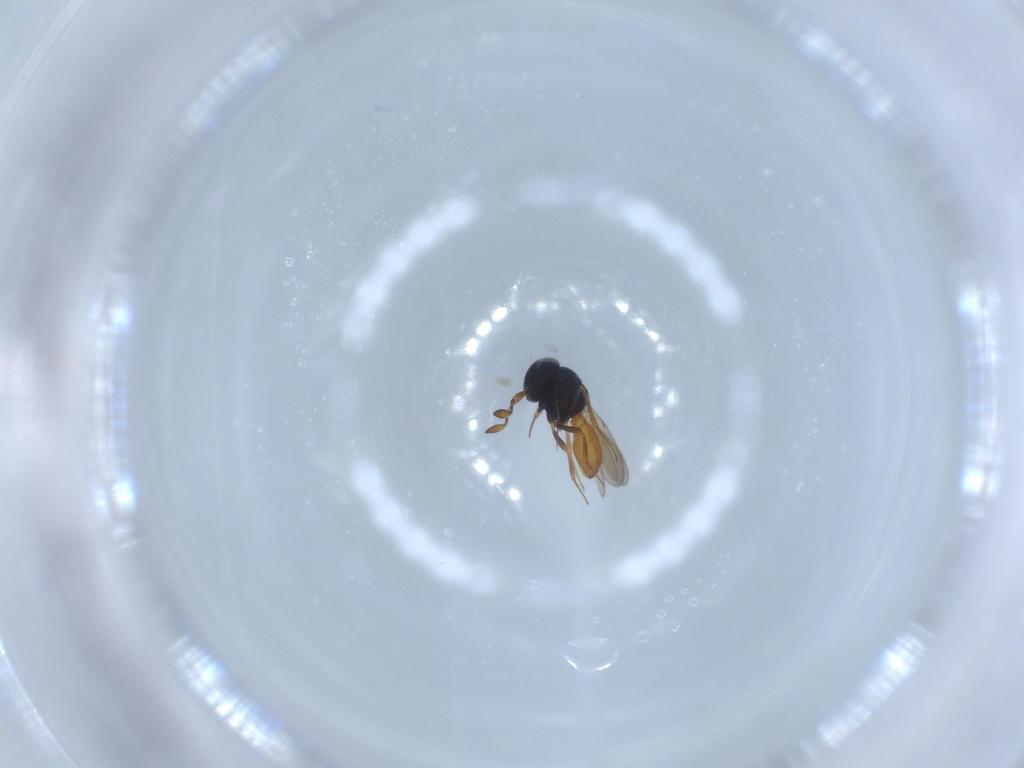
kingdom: Animalia
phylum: Arthropoda
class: Insecta
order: Hymenoptera
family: Scelionidae
